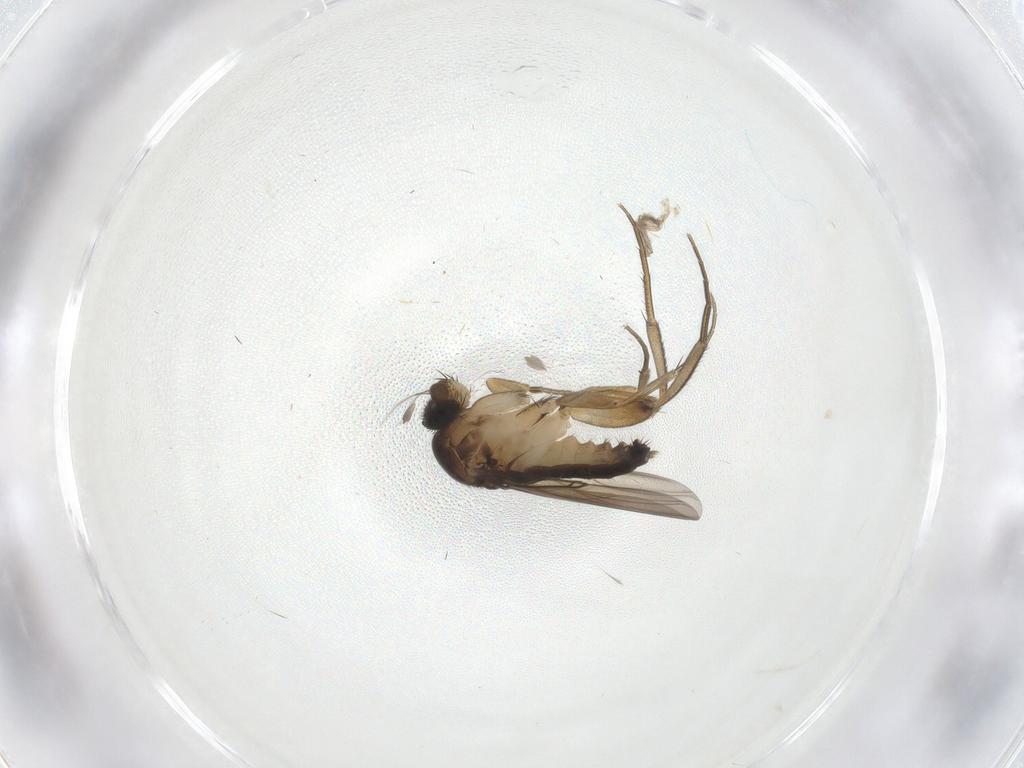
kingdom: Animalia
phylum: Arthropoda
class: Insecta
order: Diptera
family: Phoridae
